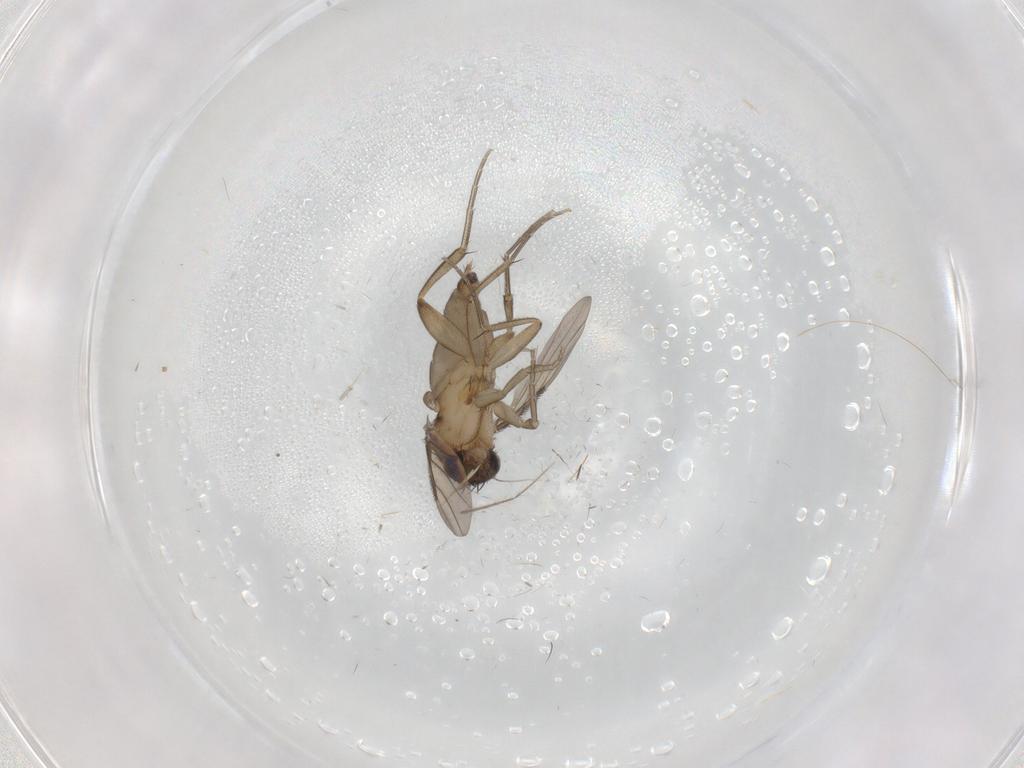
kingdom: Animalia
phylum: Arthropoda
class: Insecta
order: Diptera
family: Phoridae
